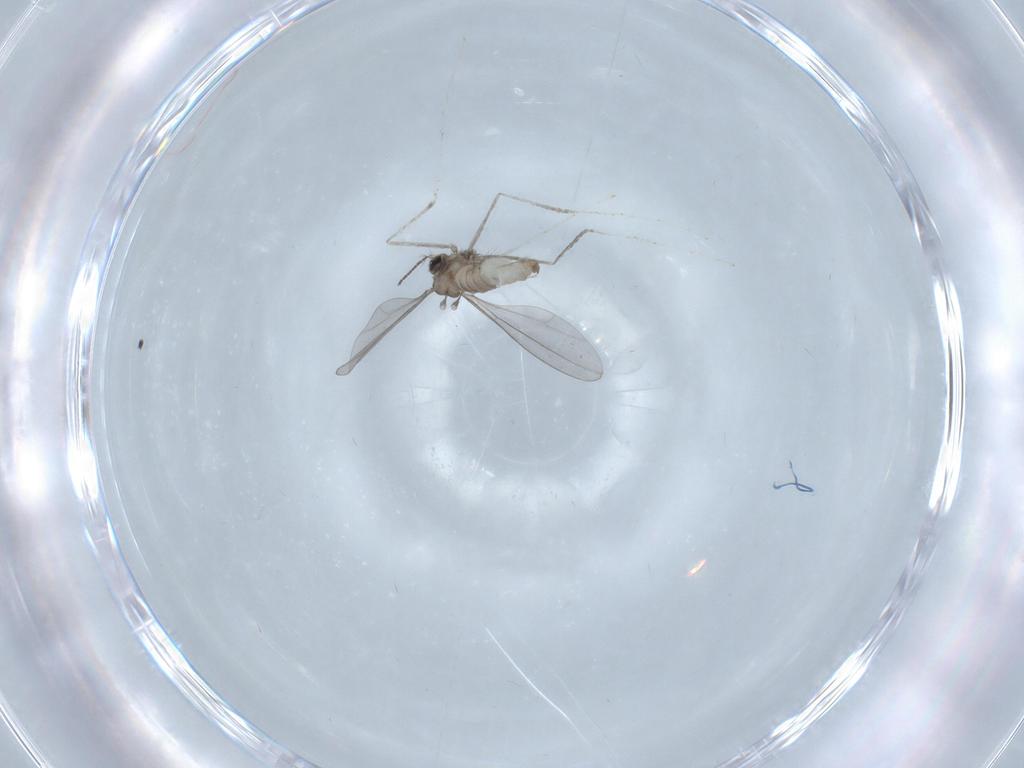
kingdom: Animalia
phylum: Arthropoda
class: Insecta
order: Diptera
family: Cecidomyiidae
